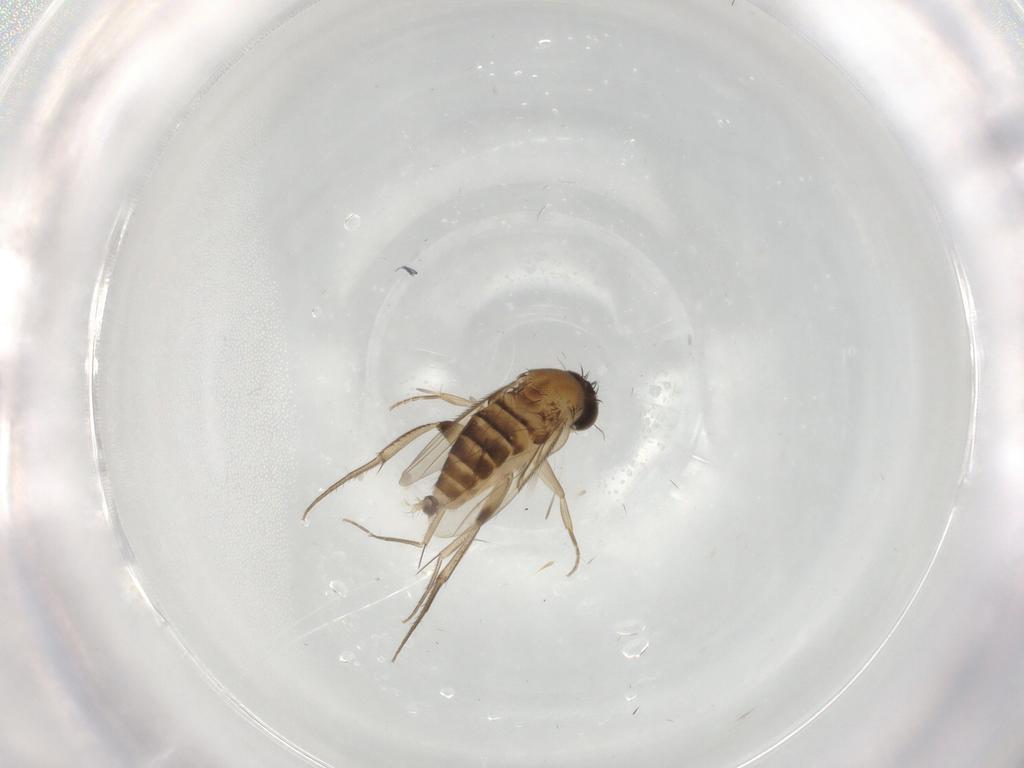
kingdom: Animalia
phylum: Arthropoda
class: Insecta
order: Diptera
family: Phoridae
